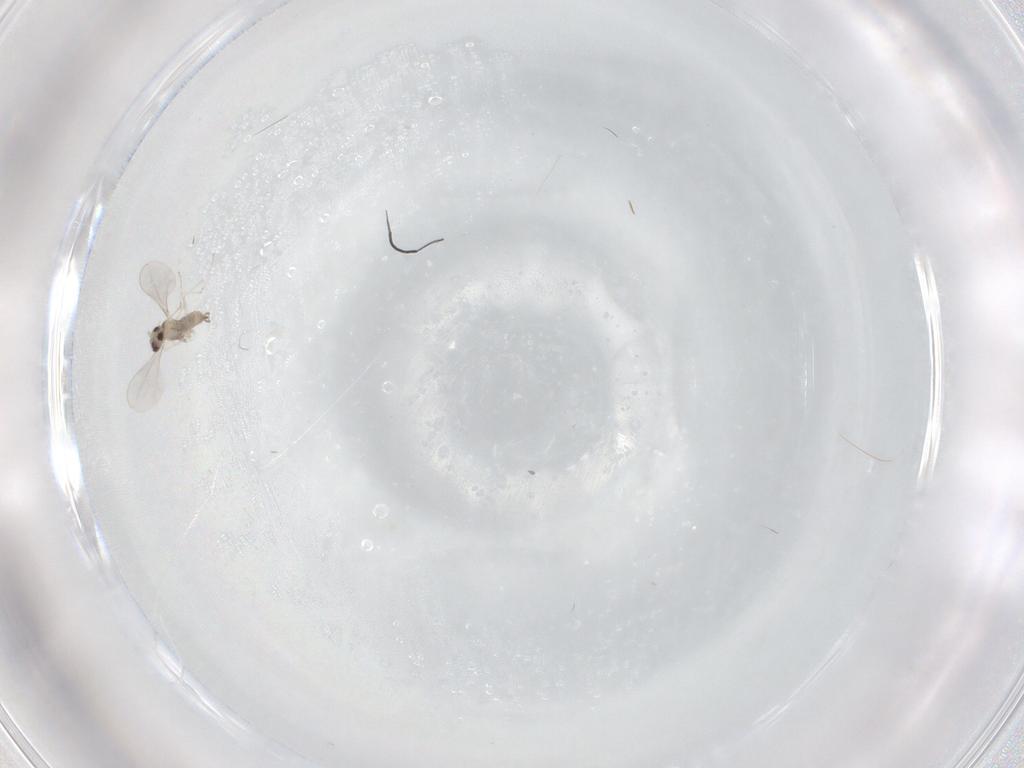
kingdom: Animalia
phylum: Arthropoda
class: Insecta
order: Diptera
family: Cecidomyiidae
